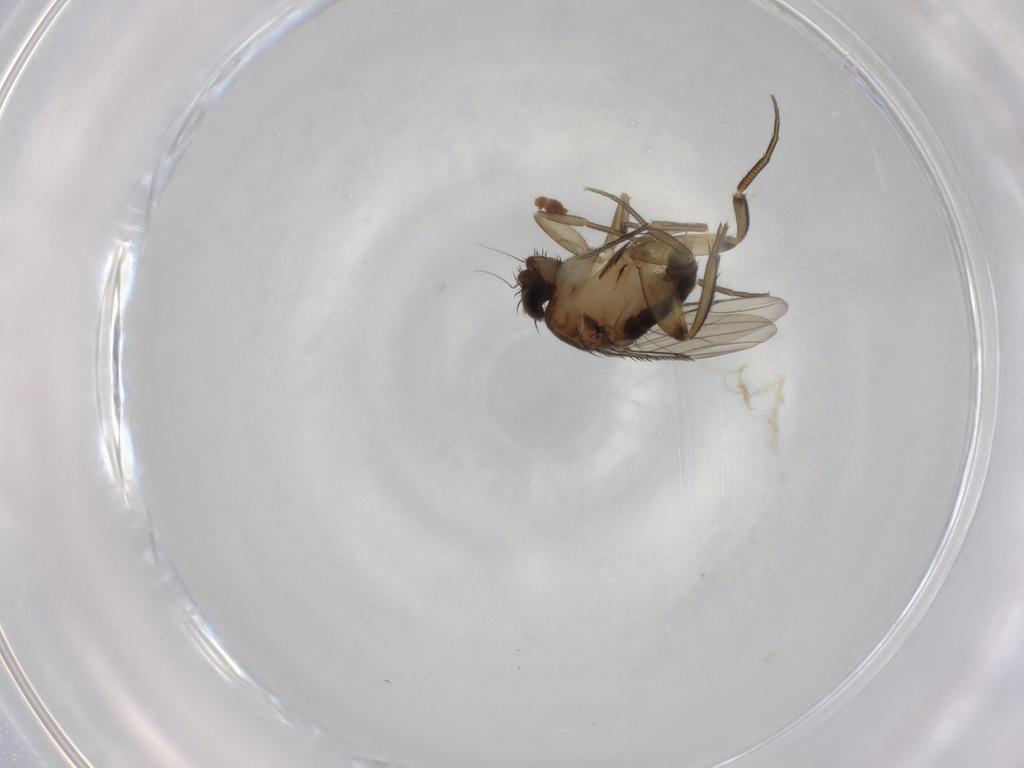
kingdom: Animalia
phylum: Arthropoda
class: Insecta
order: Diptera
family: Phoridae
